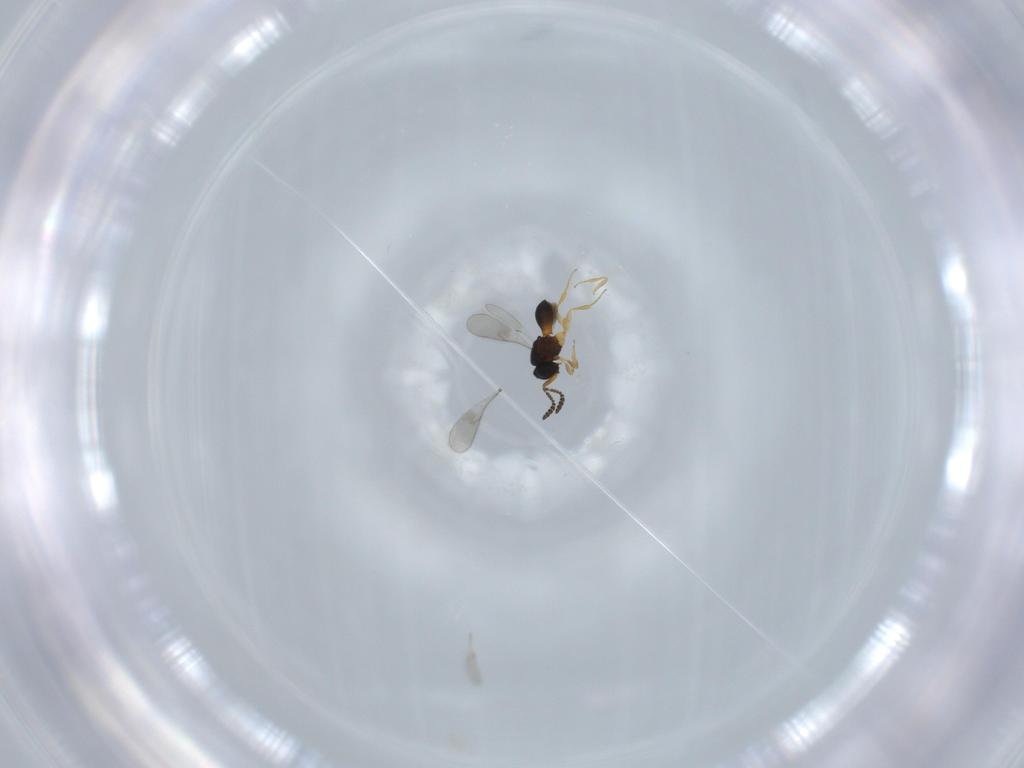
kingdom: Animalia
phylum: Arthropoda
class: Insecta
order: Hymenoptera
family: Scelionidae
